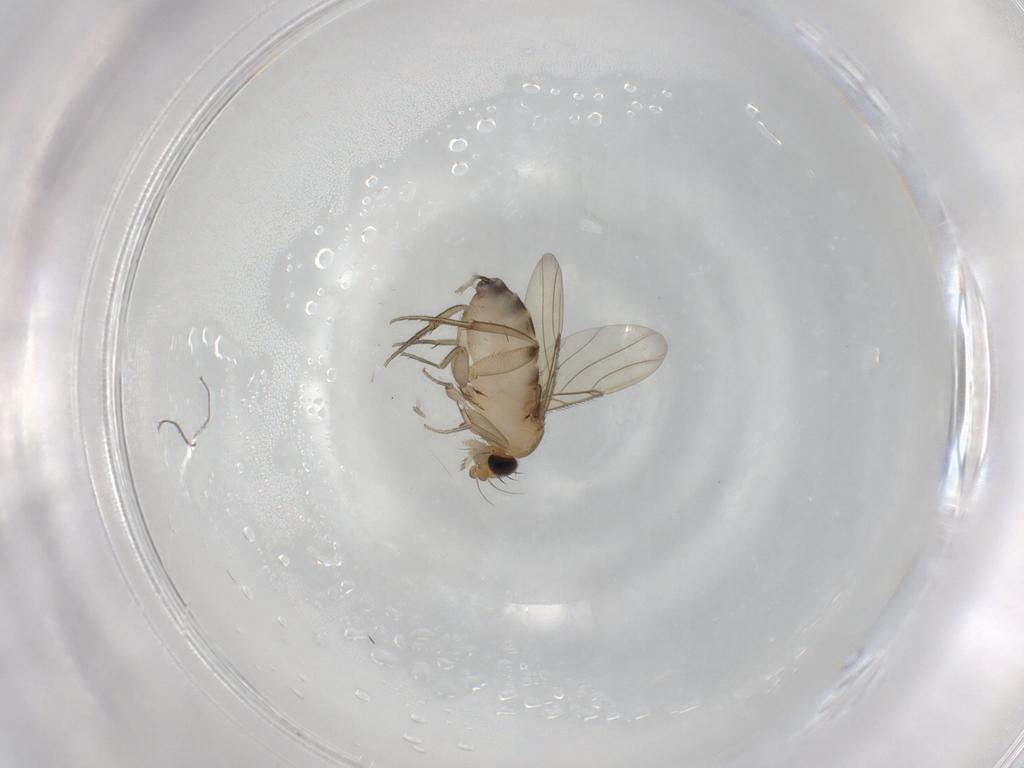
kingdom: Animalia
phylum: Arthropoda
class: Insecta
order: Diptera
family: Phoridae
